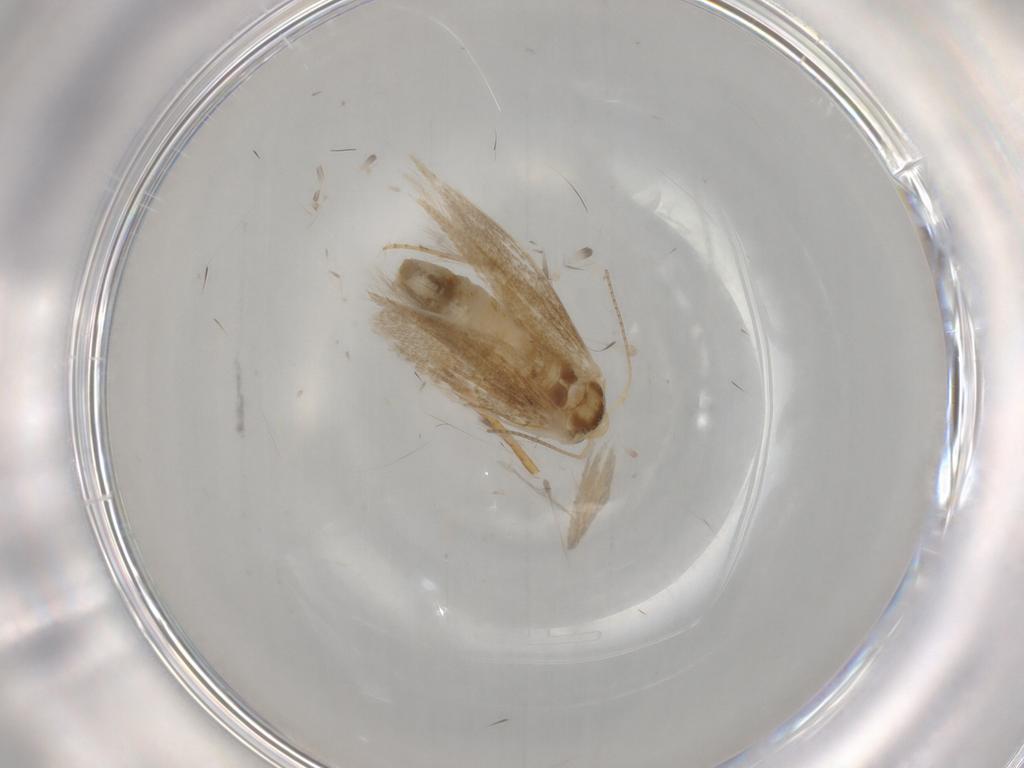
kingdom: Animalia
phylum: Arthropoda
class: Insecta
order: Lepidoptera
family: Bucculatricidae
